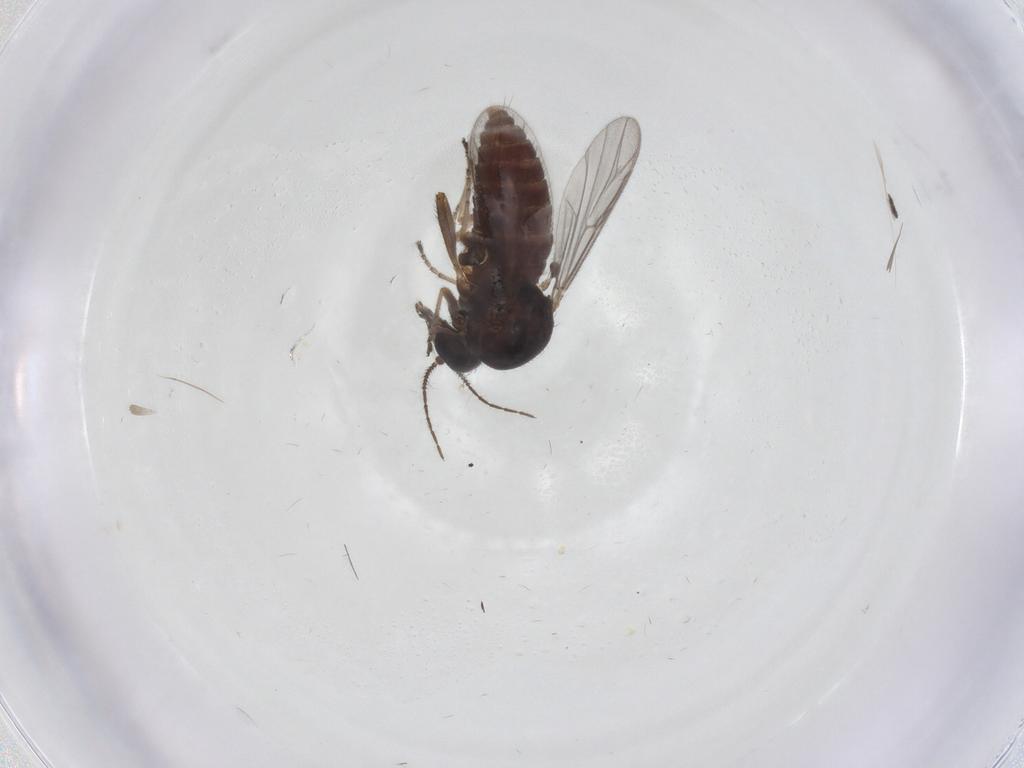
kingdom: Animalia
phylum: Arthropoda
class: Insecta
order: Diptera
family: Ceratopogonidae
